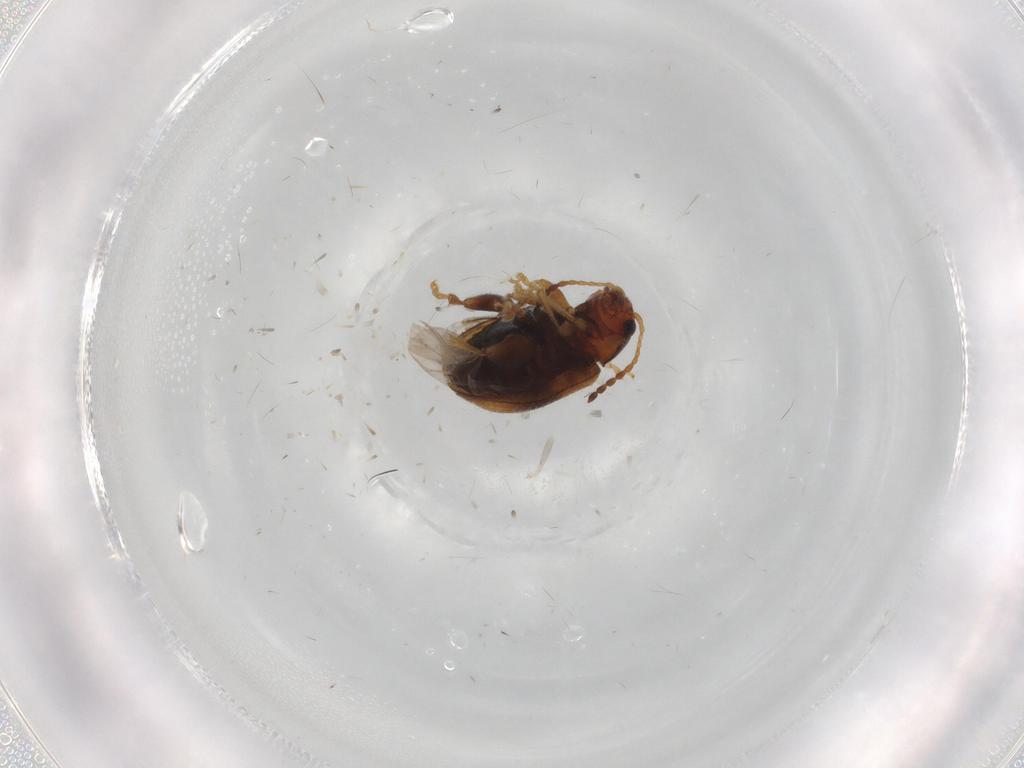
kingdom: Animalia
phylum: Arthropoda
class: Insecta
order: Coleoptera
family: Chrysomelidae
